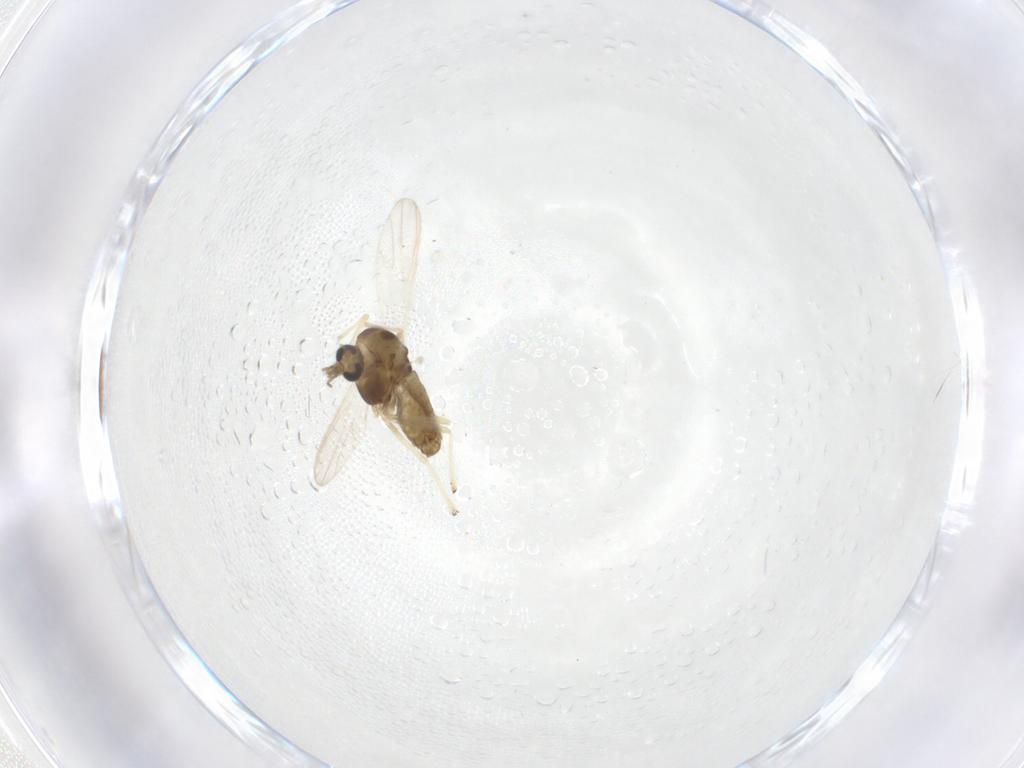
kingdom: Animalia
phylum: Arthropoda
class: Insecta
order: Diptera
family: Chironomidae
